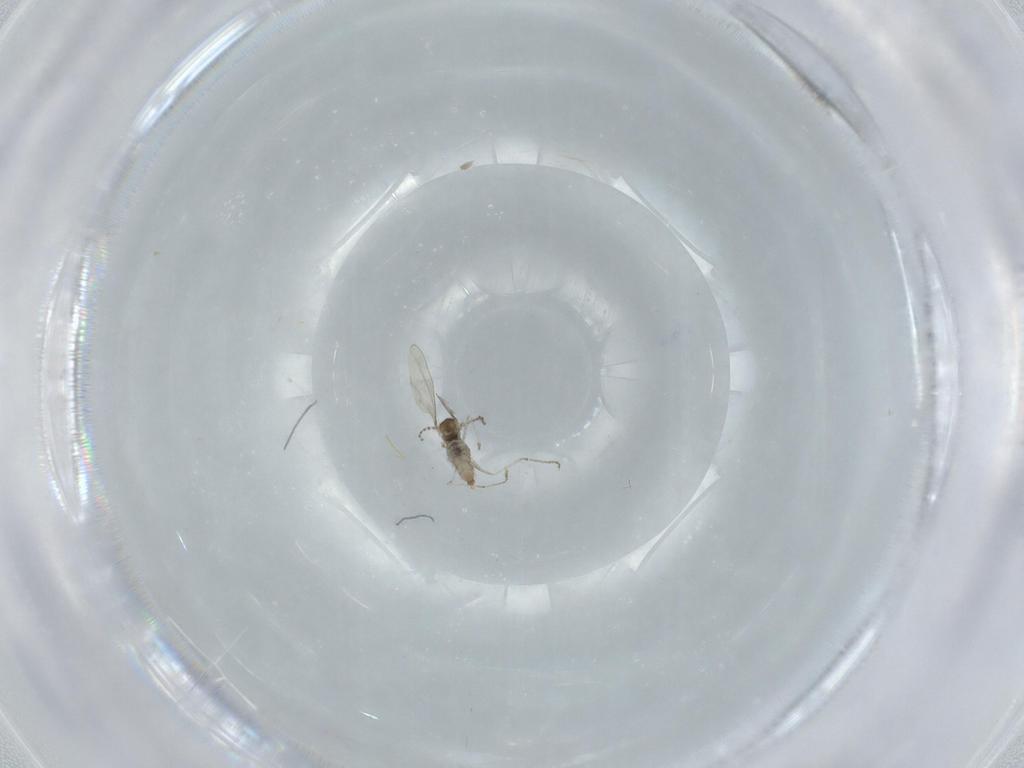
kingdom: Animalia
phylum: Arthropoda
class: Insecta
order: Diptera
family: Cecidomyiidae
